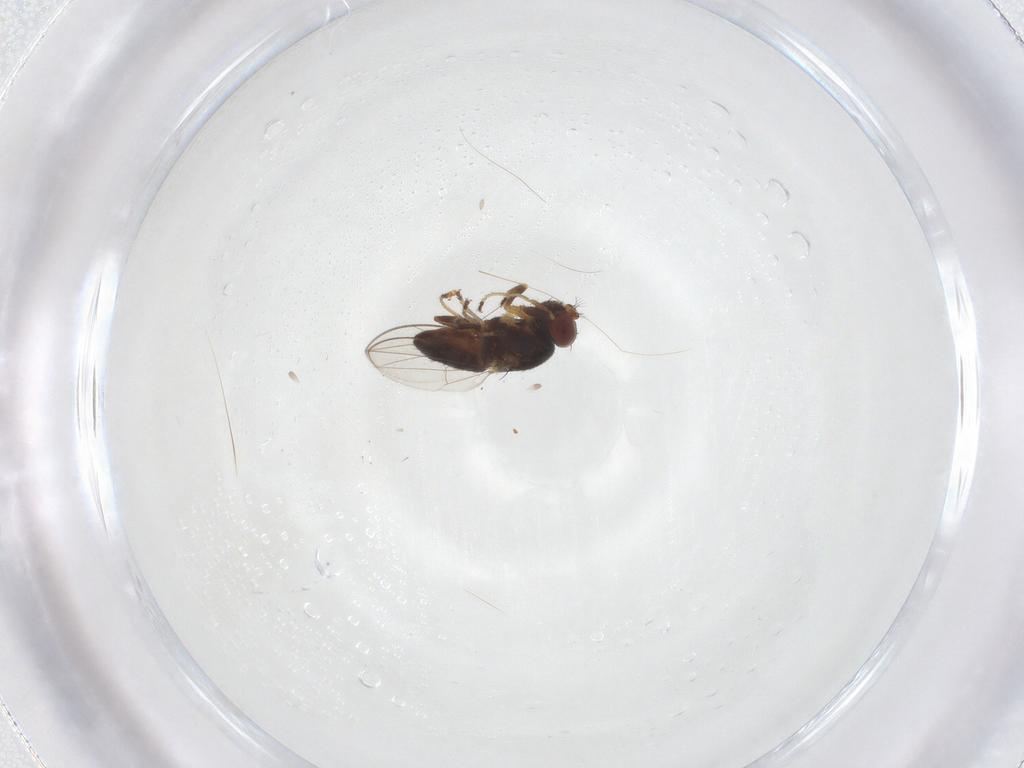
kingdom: Animalia
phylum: Arthropoda
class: Insecta
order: Diptera
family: Ephydridae
